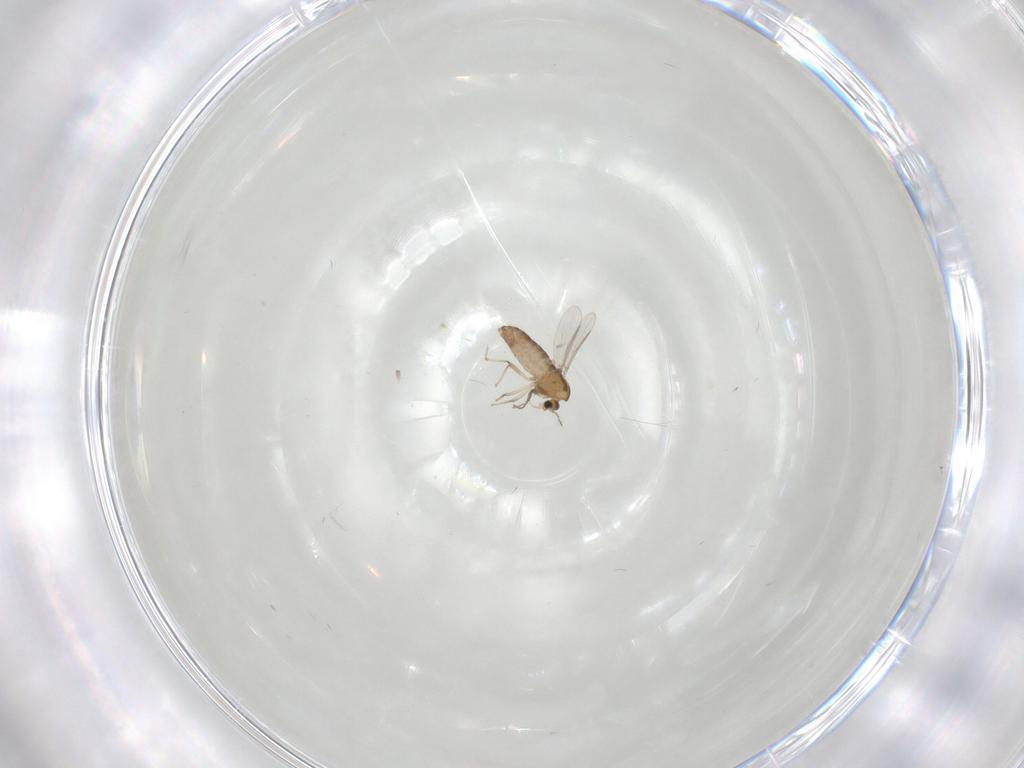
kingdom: Animalia
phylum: Arthropoda
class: Insecta
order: Diptera
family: Chironomidae
